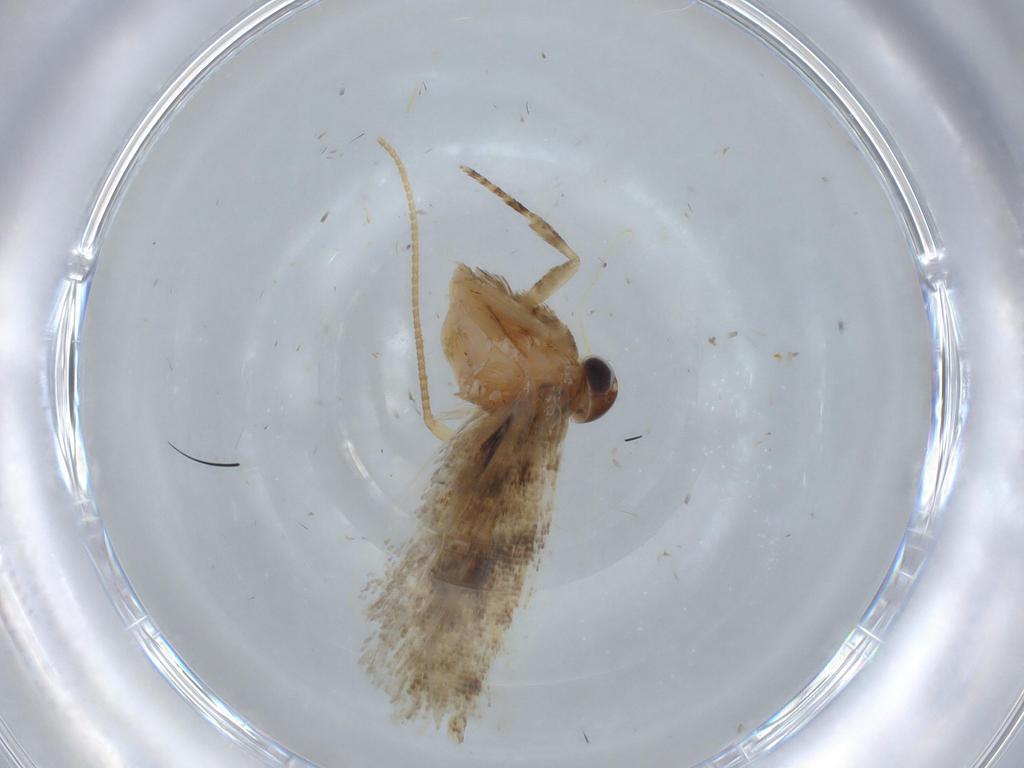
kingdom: Animalia
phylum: Arthropoda
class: Insecta
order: Lepidoptera
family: Gelechiidae
